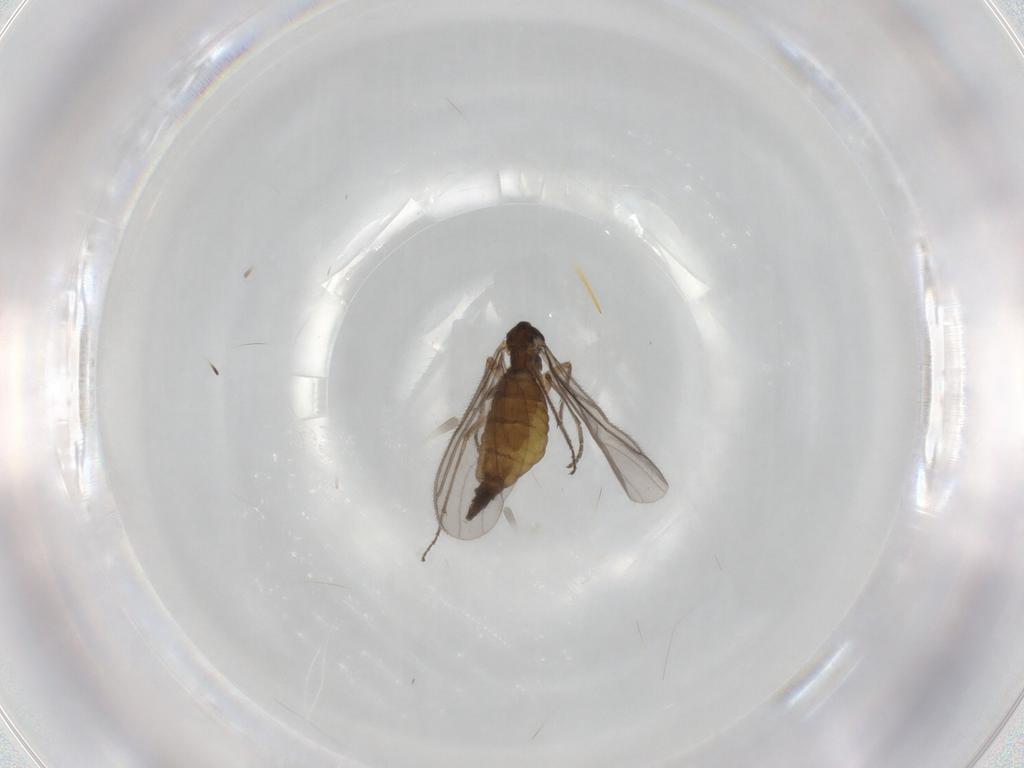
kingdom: Animalia
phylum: Arthropoda
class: Insecta
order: Diptera
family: Sciaridae
